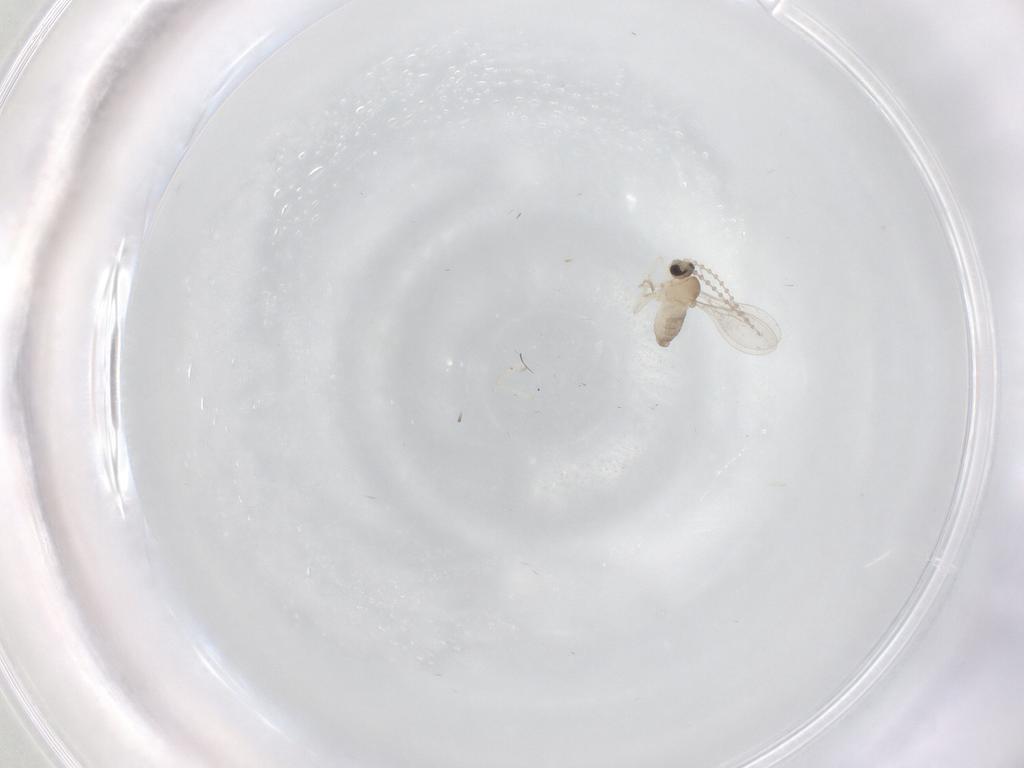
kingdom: Animalia
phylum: Arthropoda
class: Insecta
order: Diptera
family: Cecidomyiidae
